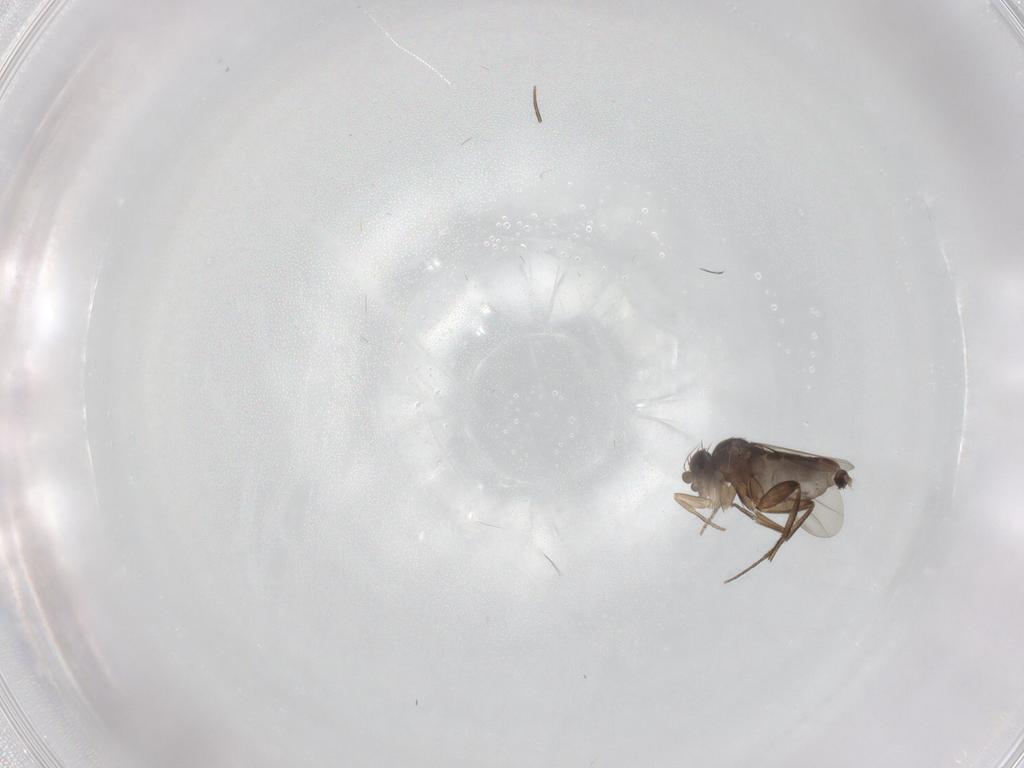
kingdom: Animalia
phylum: Arthropoda
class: Insecta
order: Diptera
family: Phoridae
